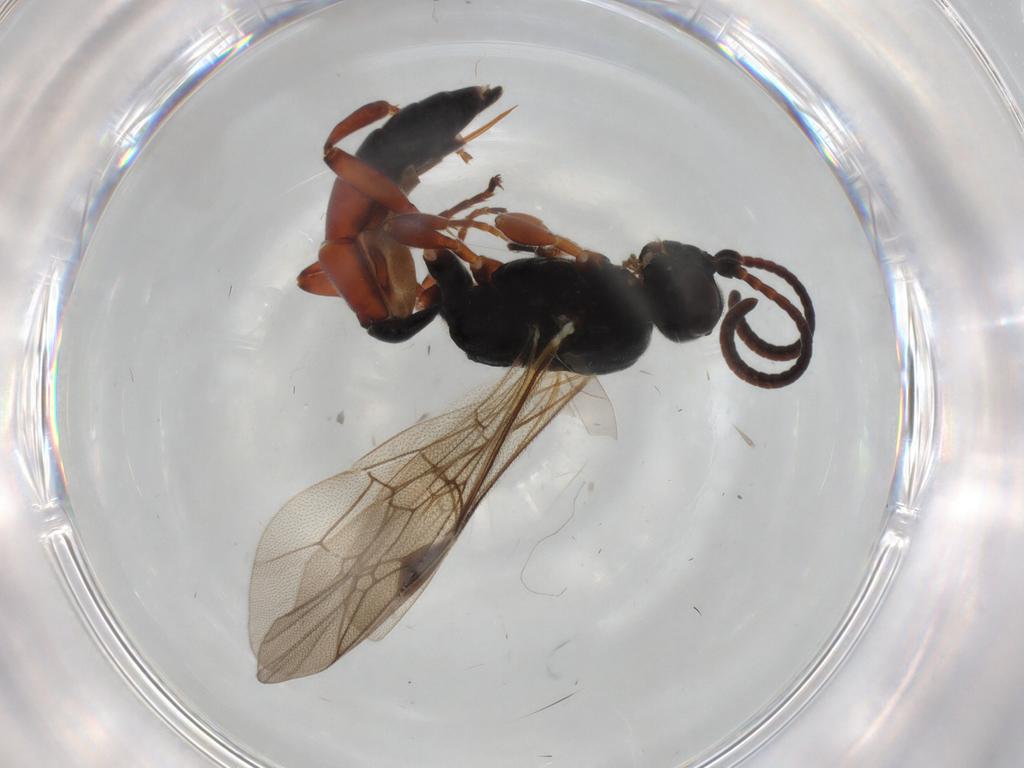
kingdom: Animalia
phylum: Arthropoda
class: Insecta
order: Hymenoptera
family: Ichneumonidae
